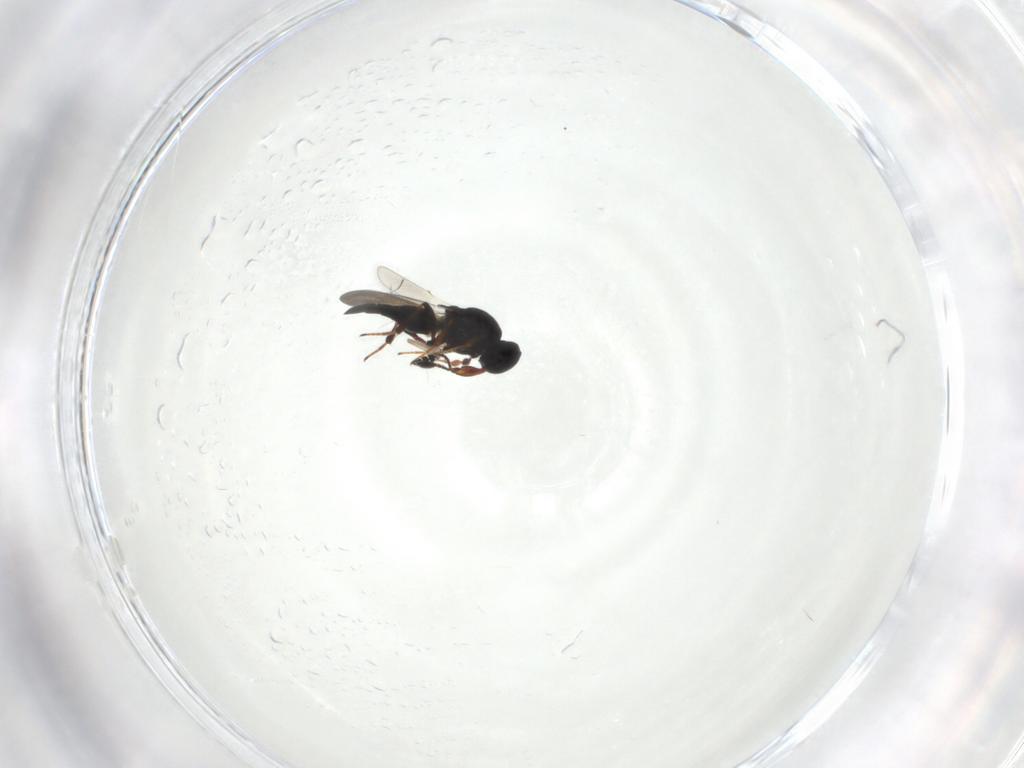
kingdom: Animalia
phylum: Arthropoda
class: Insecta
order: Hymenoptera
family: Platygastridae
